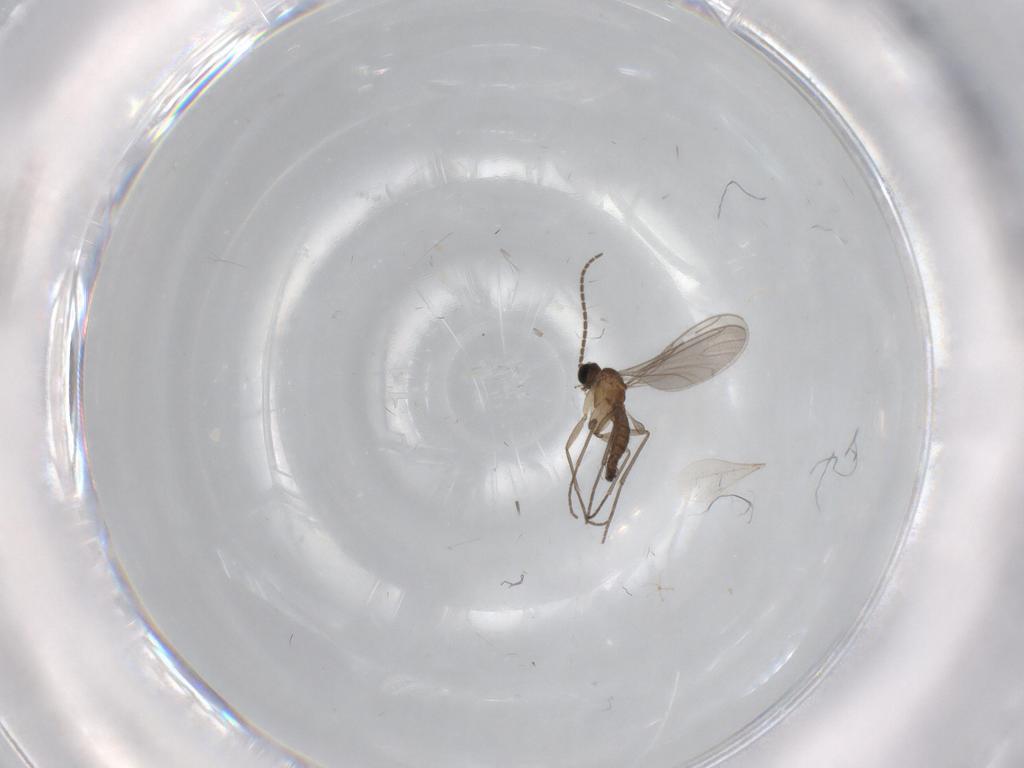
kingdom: Animalia
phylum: Arthropoda
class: Insecta
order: Diptera
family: Sciaridae
